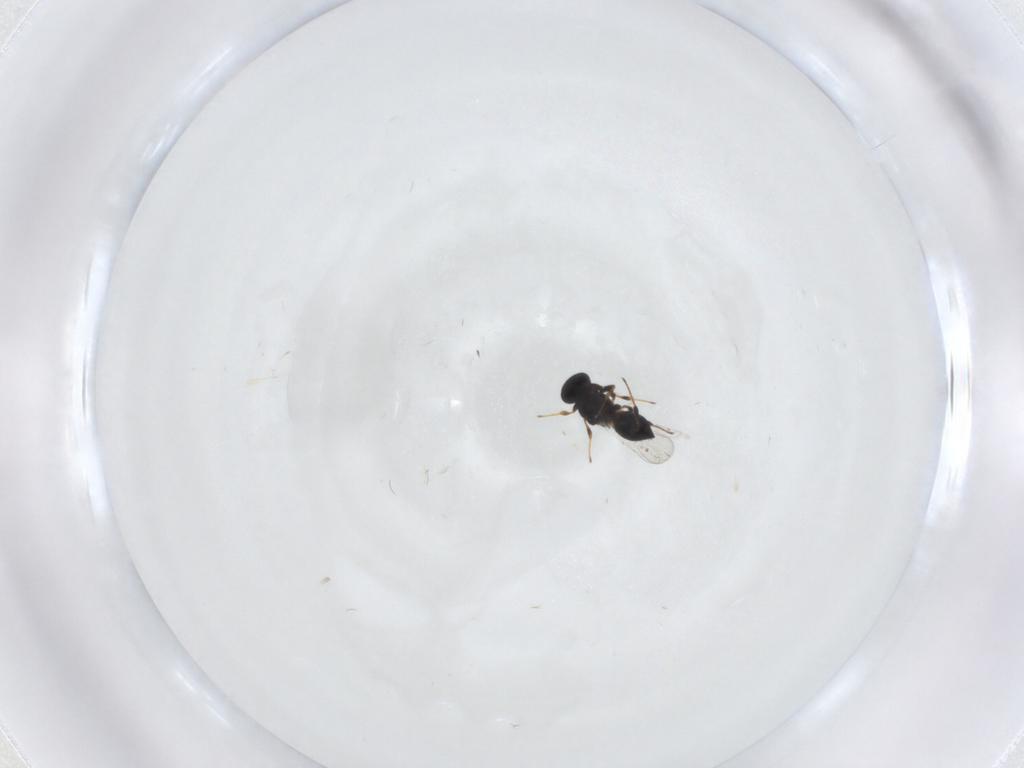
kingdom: Animalia
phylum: Arthropoda
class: Insecta
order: Hymenoptera
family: Platygastridae
